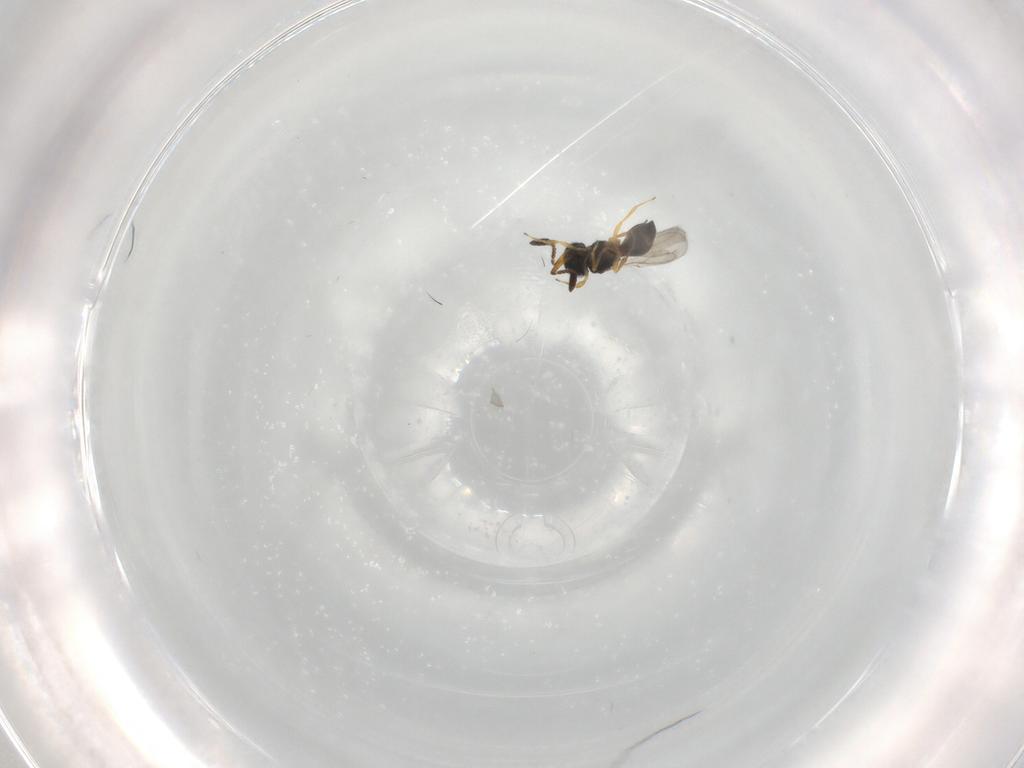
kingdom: Animalia
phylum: Arthropoda
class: Insecta
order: Hymenoptera
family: Scelionidae
